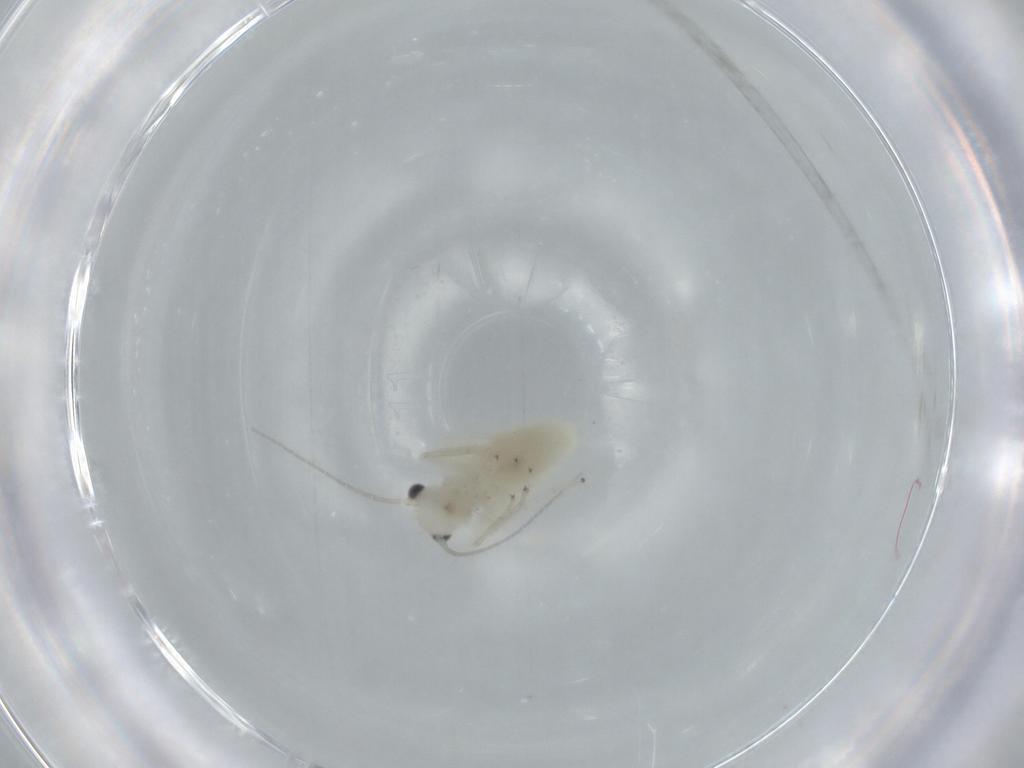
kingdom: Animalia
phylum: Arthropoda
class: Insecta
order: Psocodea
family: Caeciliusidae
